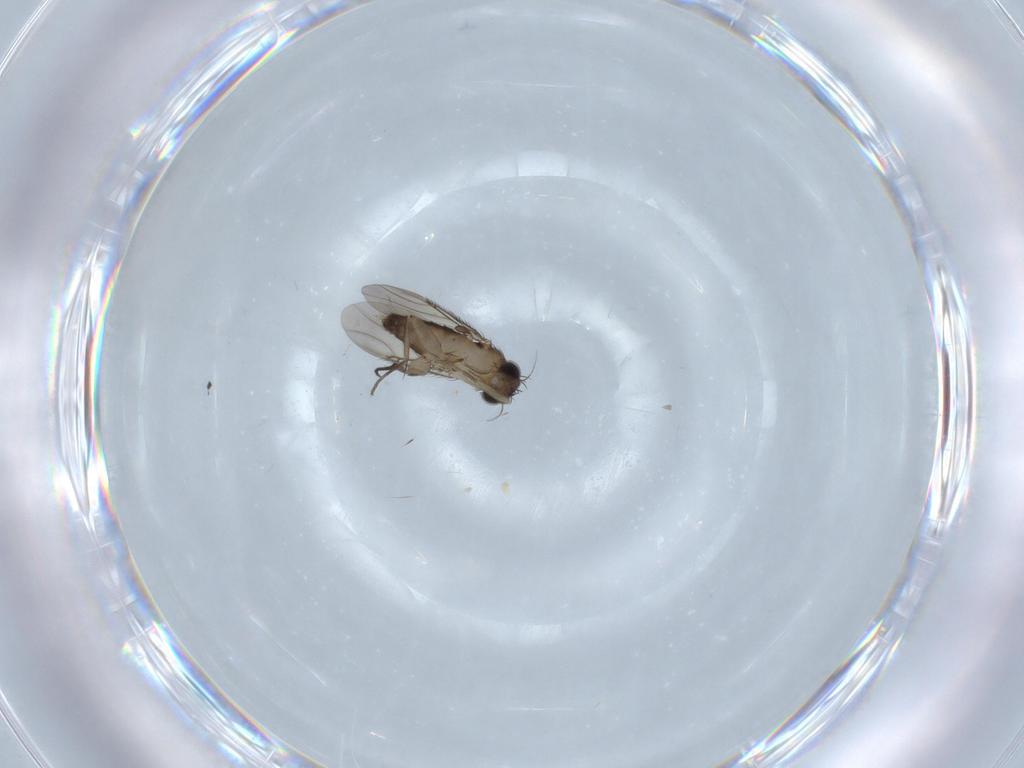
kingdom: Animalia
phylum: Arthropoda
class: Insecta
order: Diptera
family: Phoridae
